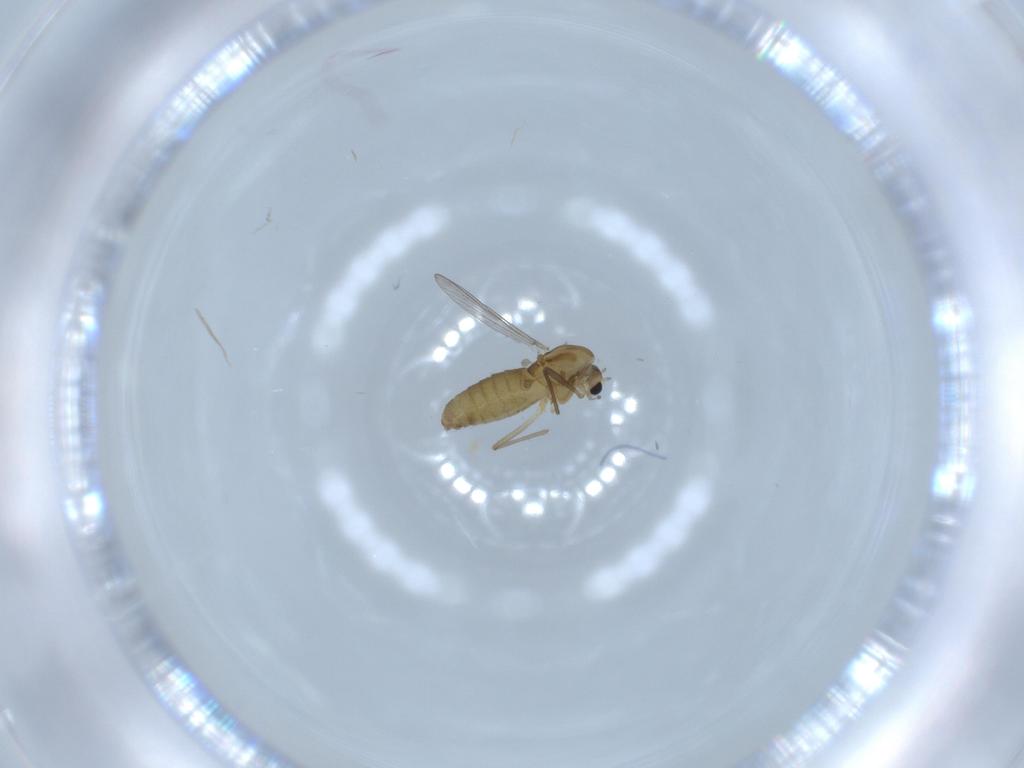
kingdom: Animalia
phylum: Arthropoda
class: Insecta
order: Diptera
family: Chironomidae
